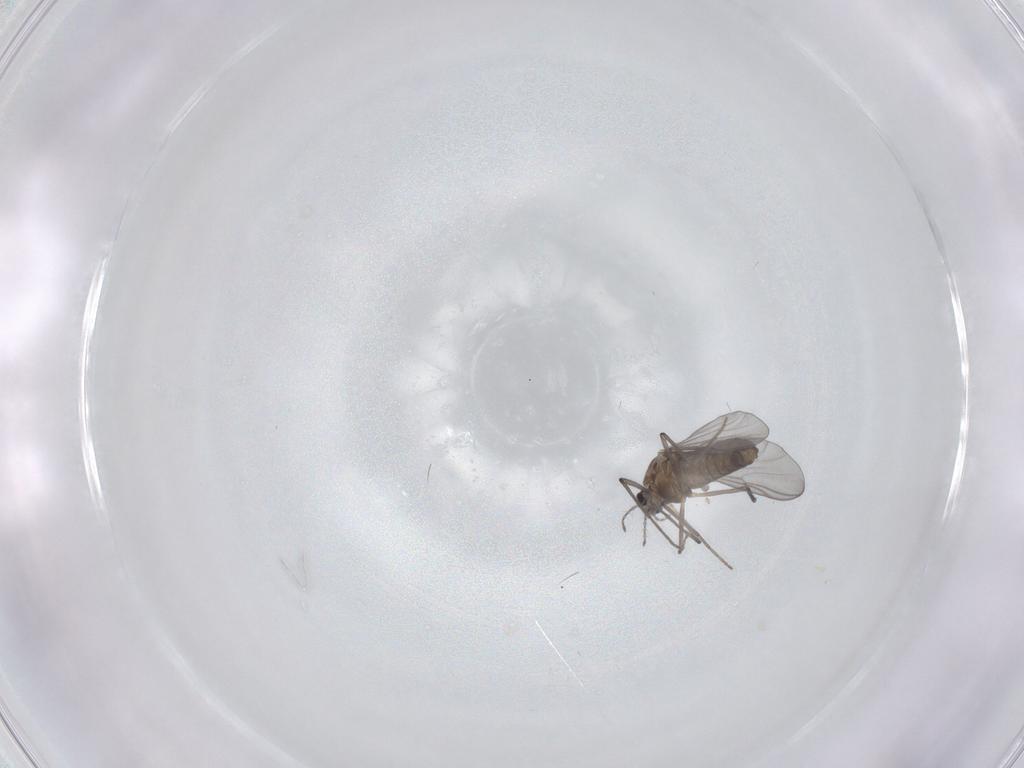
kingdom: Animalia
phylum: Arthropoda
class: Insecta
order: Diptera
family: Chironomidae
